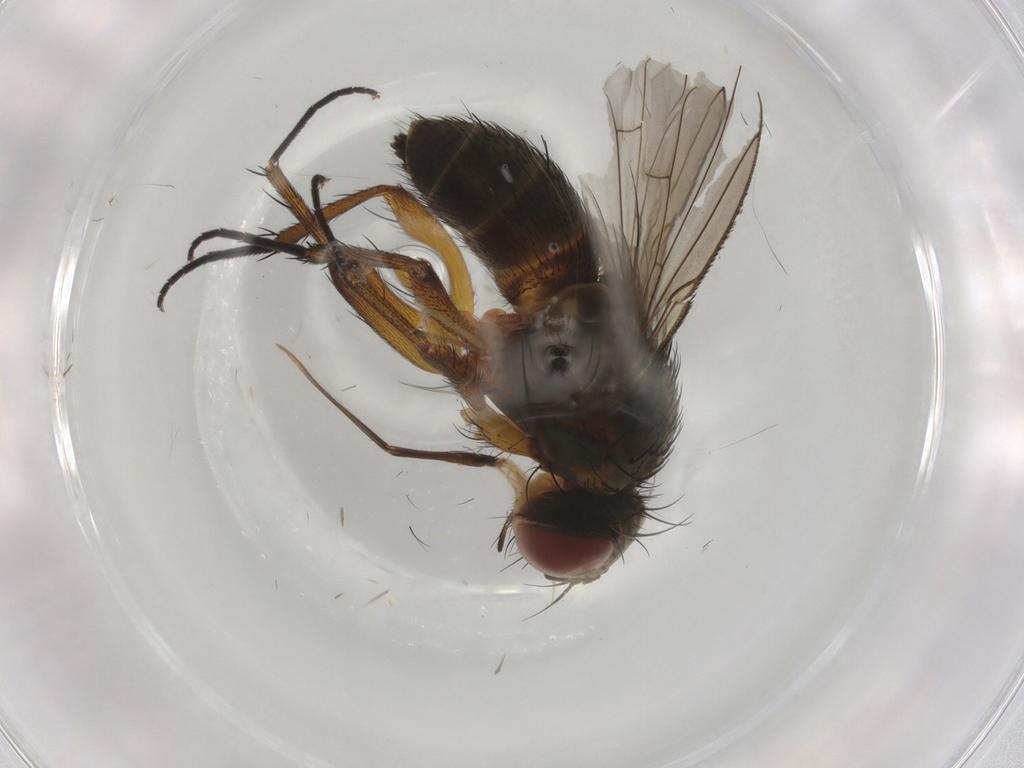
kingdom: Animalia
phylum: Arthropoda
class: Insecta
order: Diptera
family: Tachinidae
